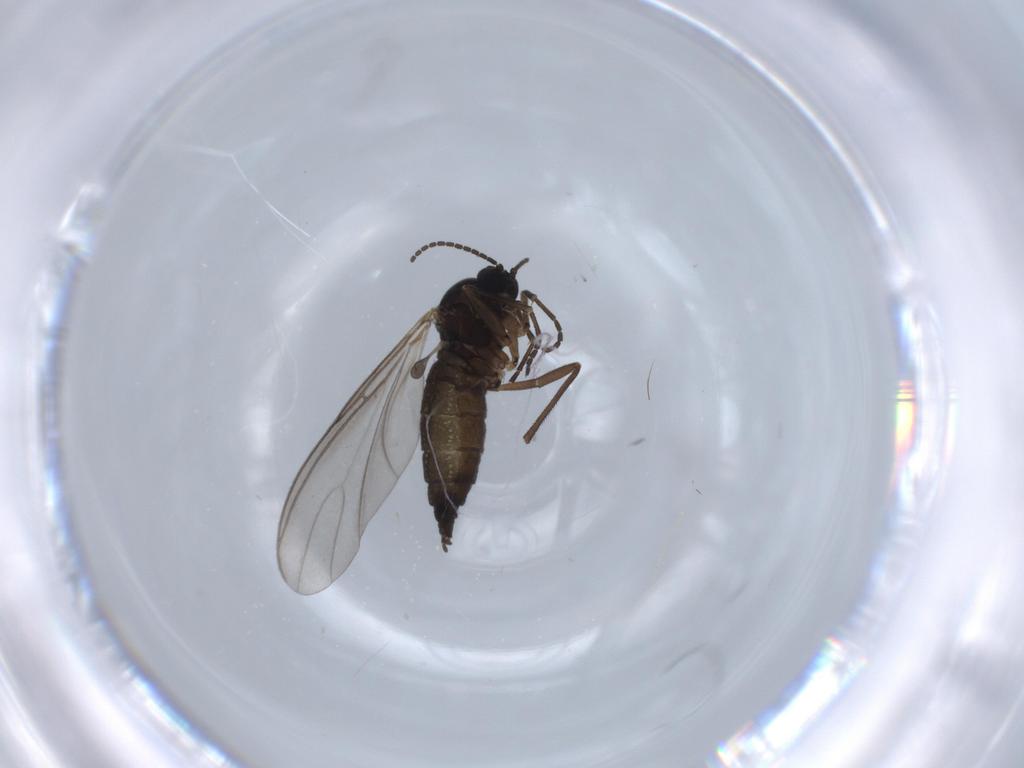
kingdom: Animalia
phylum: Arthropoda
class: Insecta
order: Diptera
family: Sciaridae
